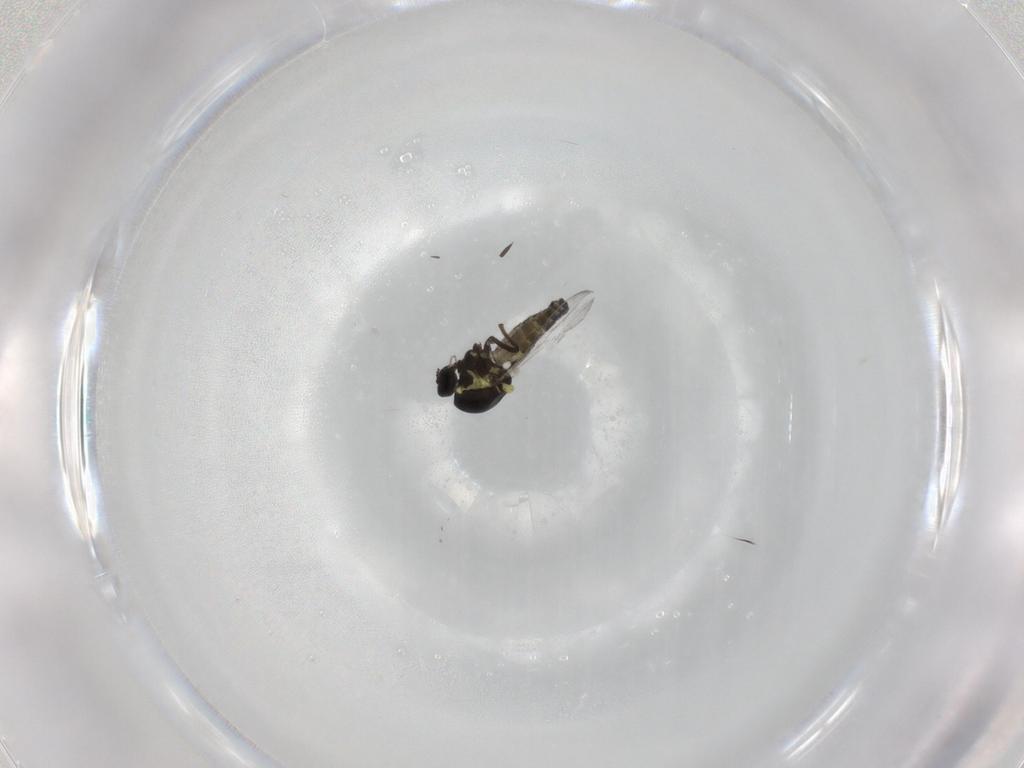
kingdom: Animalia
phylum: Arthropoda
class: Insecta
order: Diptera
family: Ceratopogonidae
